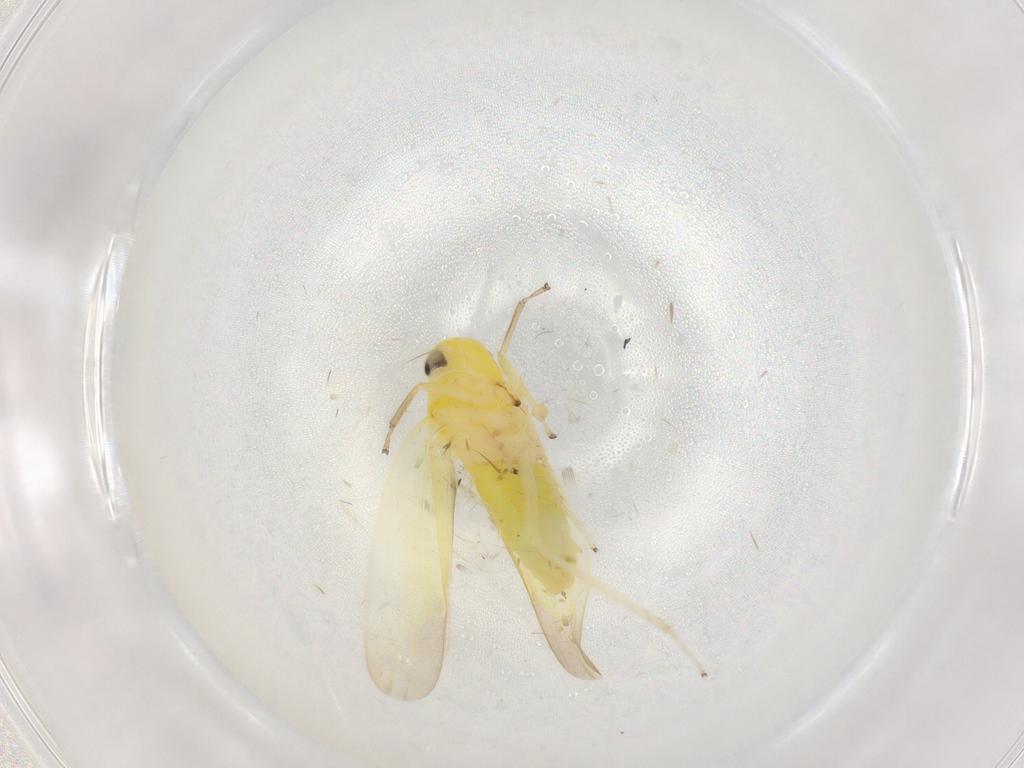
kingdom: Animalia
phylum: Arthropoda
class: Insecta
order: Hemiptera
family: Cicadellidae
